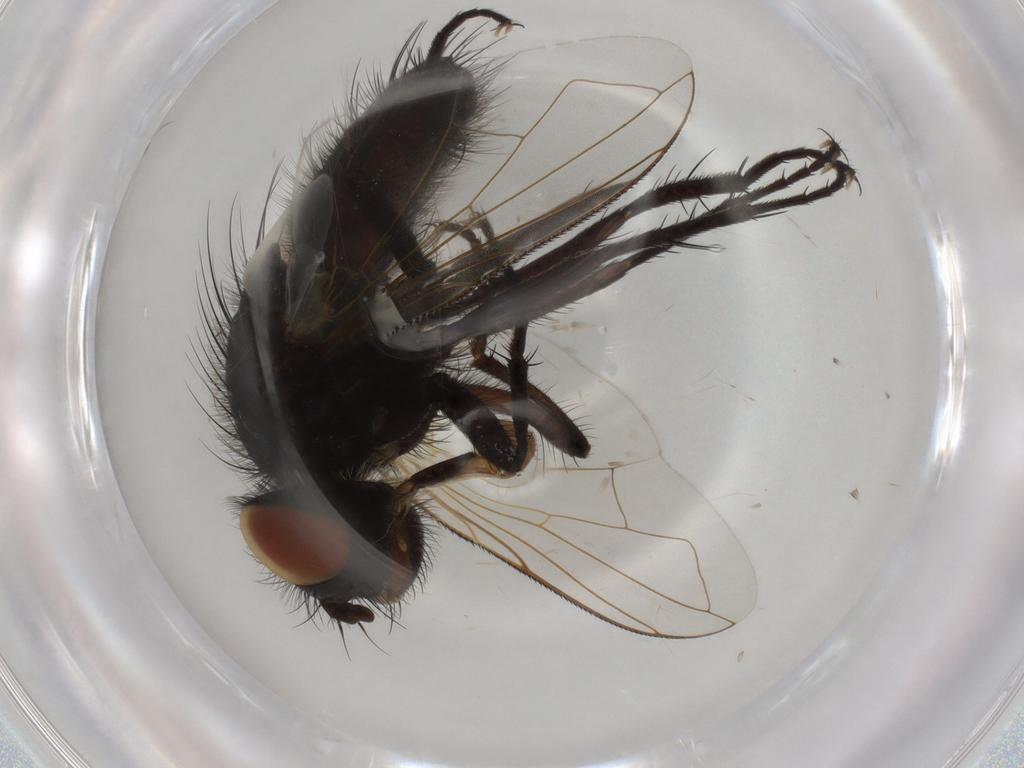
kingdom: Animalia
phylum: Arthropoda
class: Insecta
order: Diptera
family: Tachinidae
